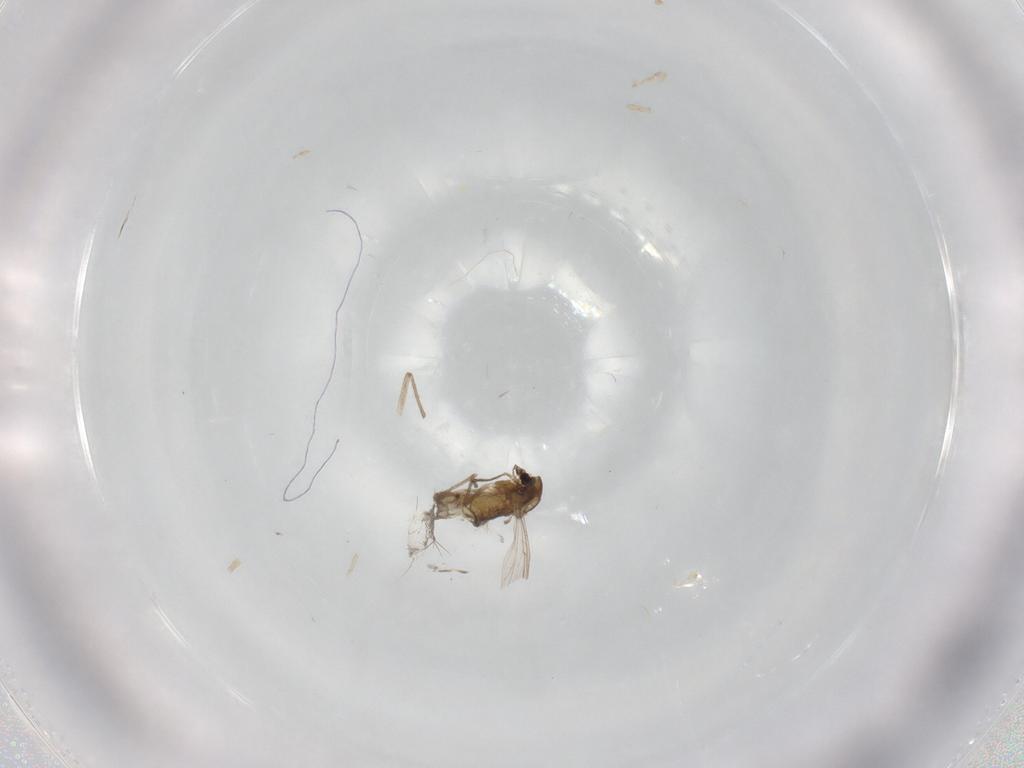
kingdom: Animalia
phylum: Arthropoda
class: Insecta
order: Diptera
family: Chironomidae
